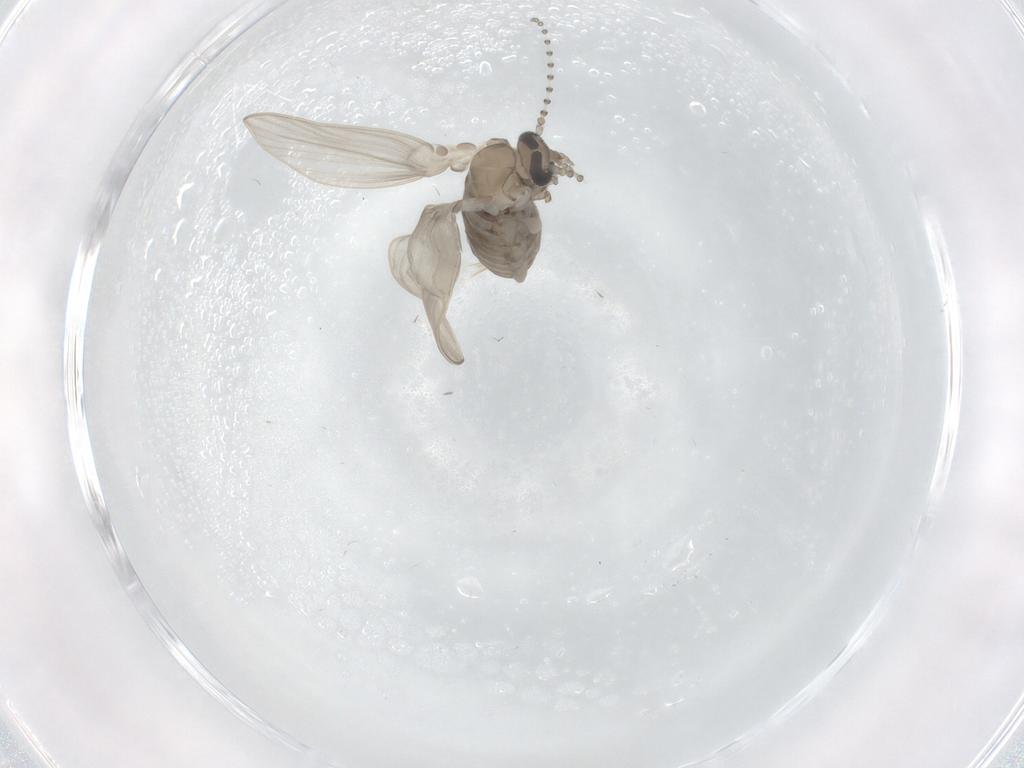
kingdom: Animalia
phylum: Arthropoda
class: Insecta
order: Diptera
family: Psychodidae
